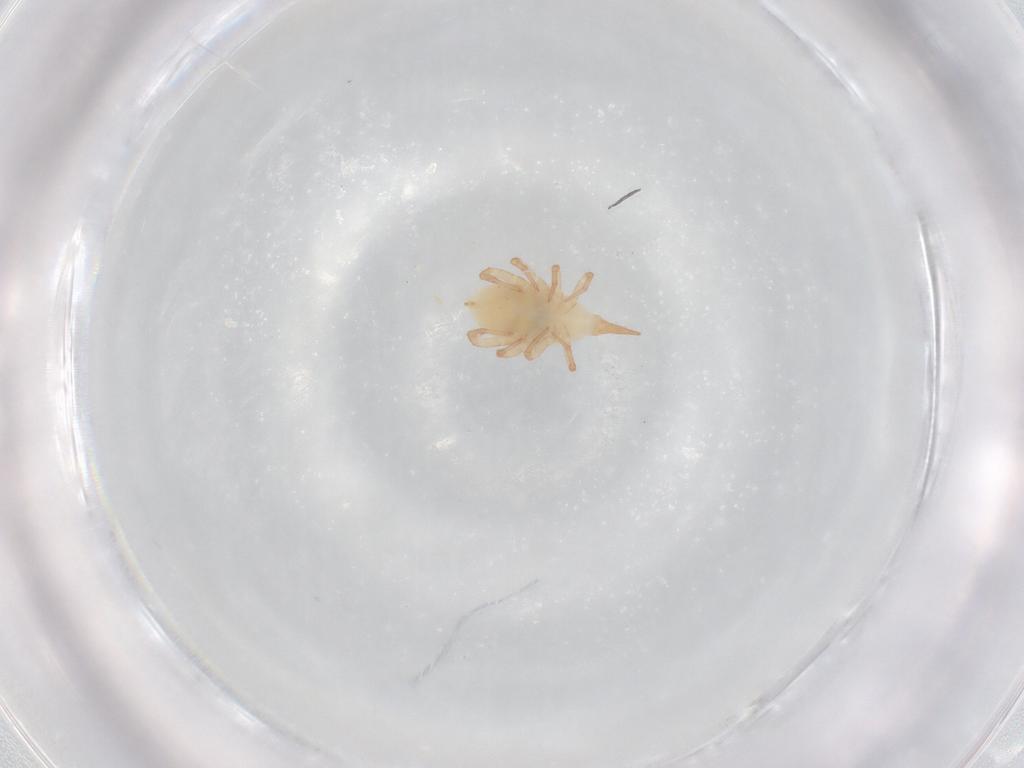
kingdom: Animalia
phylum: Arthropoda
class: Arachnida
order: Trombidiformes
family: Eupodidae
